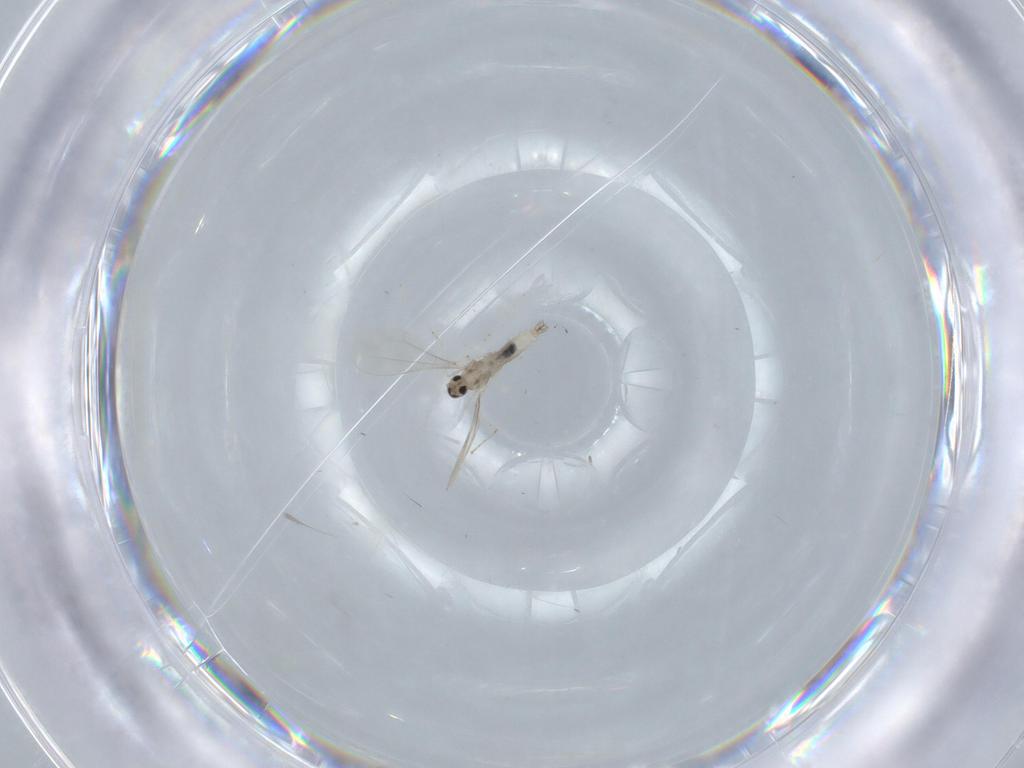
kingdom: Animalia
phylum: Arthropoda
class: Insecta
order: Diptera
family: Cecidomyiidae
